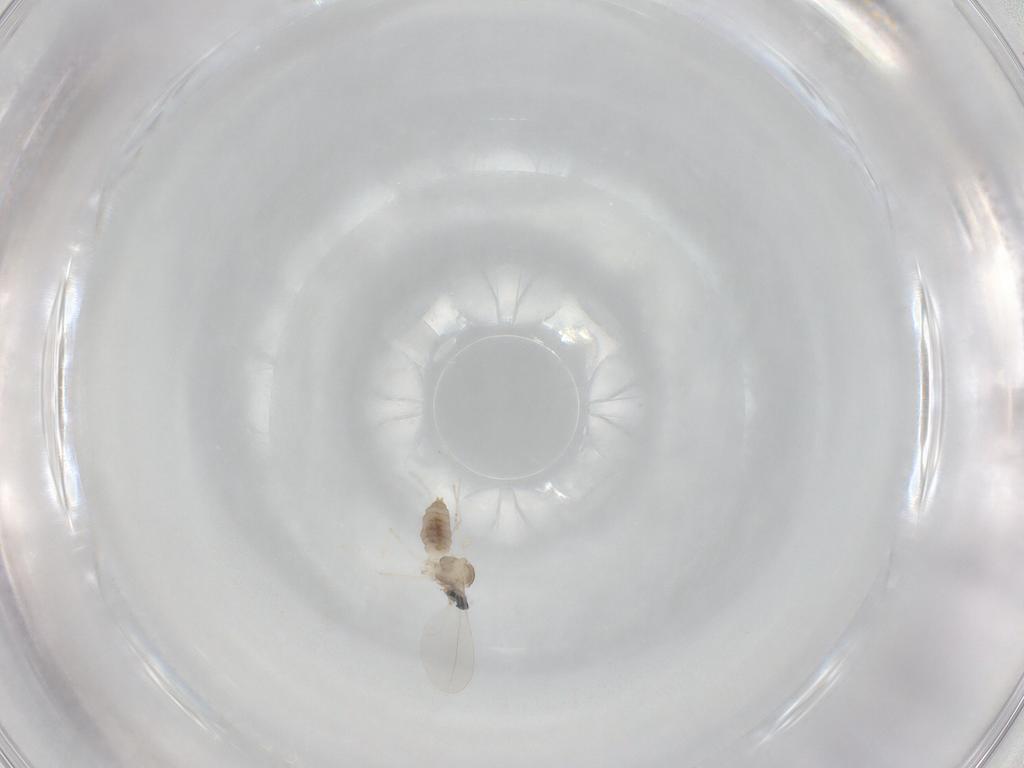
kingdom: Animalia
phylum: Arthropoda
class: Insecta
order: Diptera
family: Cecidomyiidae
